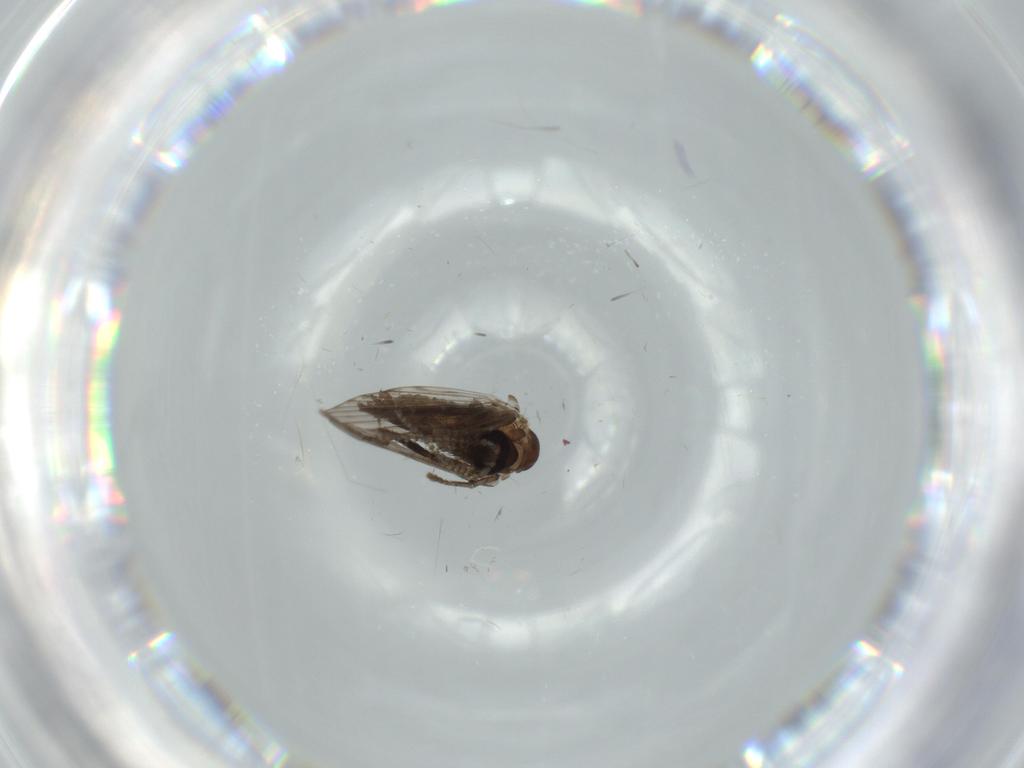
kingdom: Animalia
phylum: Arthropoda
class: Insecta
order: Diptera
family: Psychodidae
